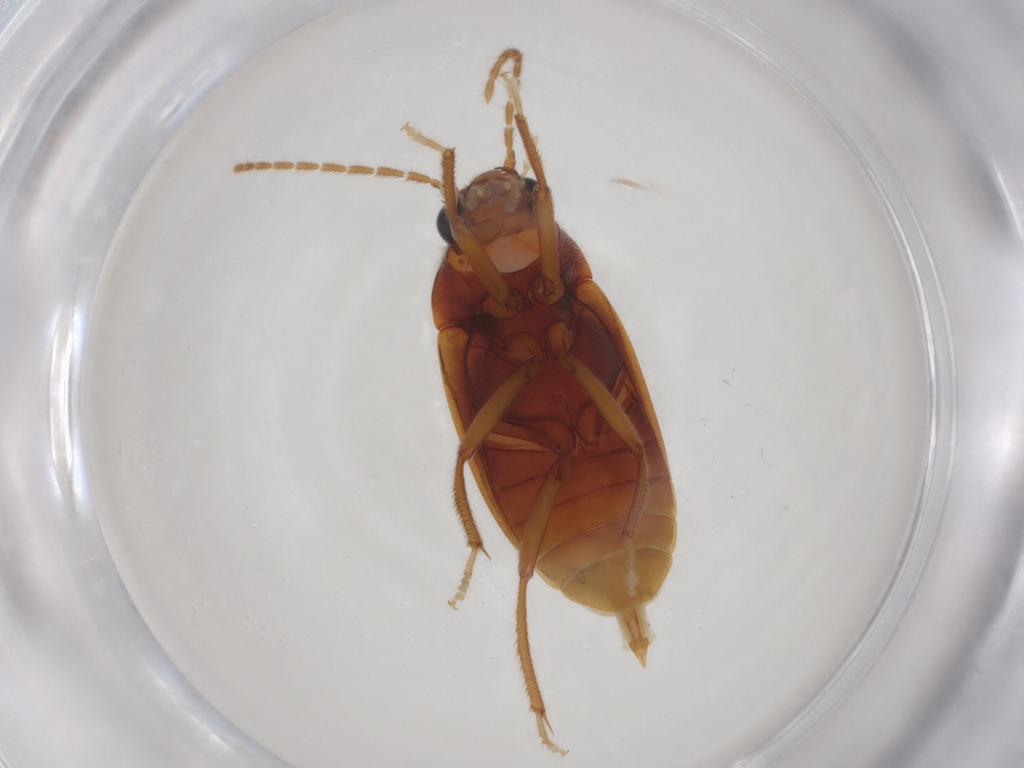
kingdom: Animalia
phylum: Arthropoda
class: Insecta
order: Coleoptera
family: Ptilodactylidae
